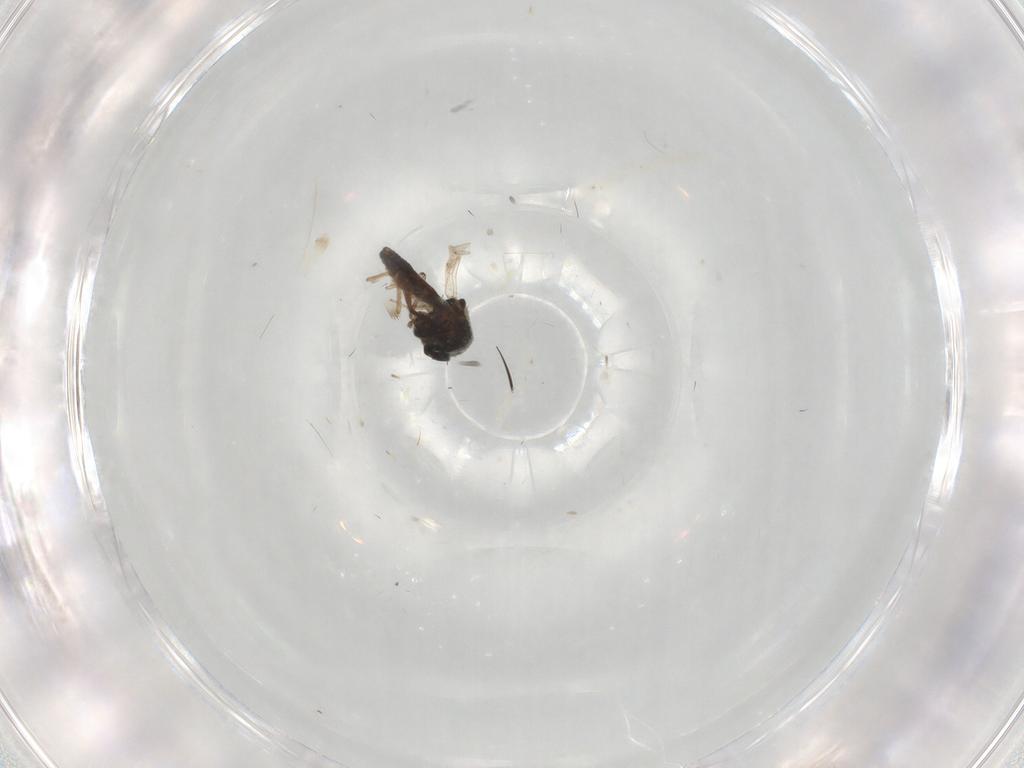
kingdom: Animalia
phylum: Arthropoda
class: Insecta
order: Diptera
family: Ceratopogonidae
